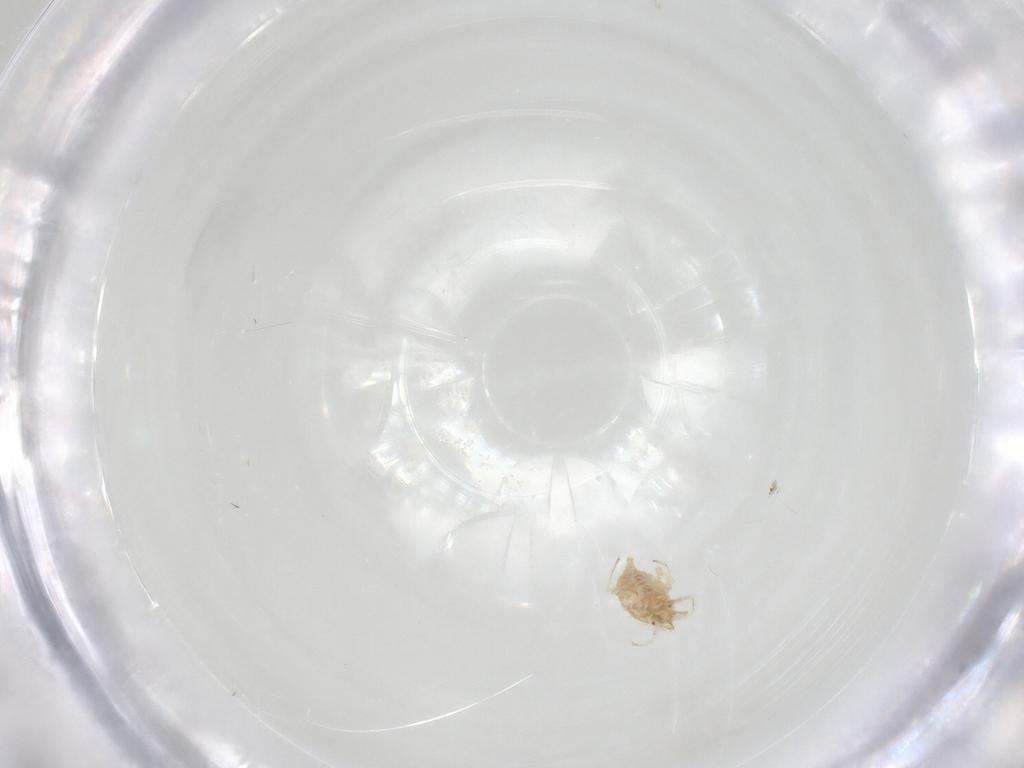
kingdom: Animalia
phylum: Arthropoda
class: Insecta
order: Neuroptera
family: Coniopterygidae
